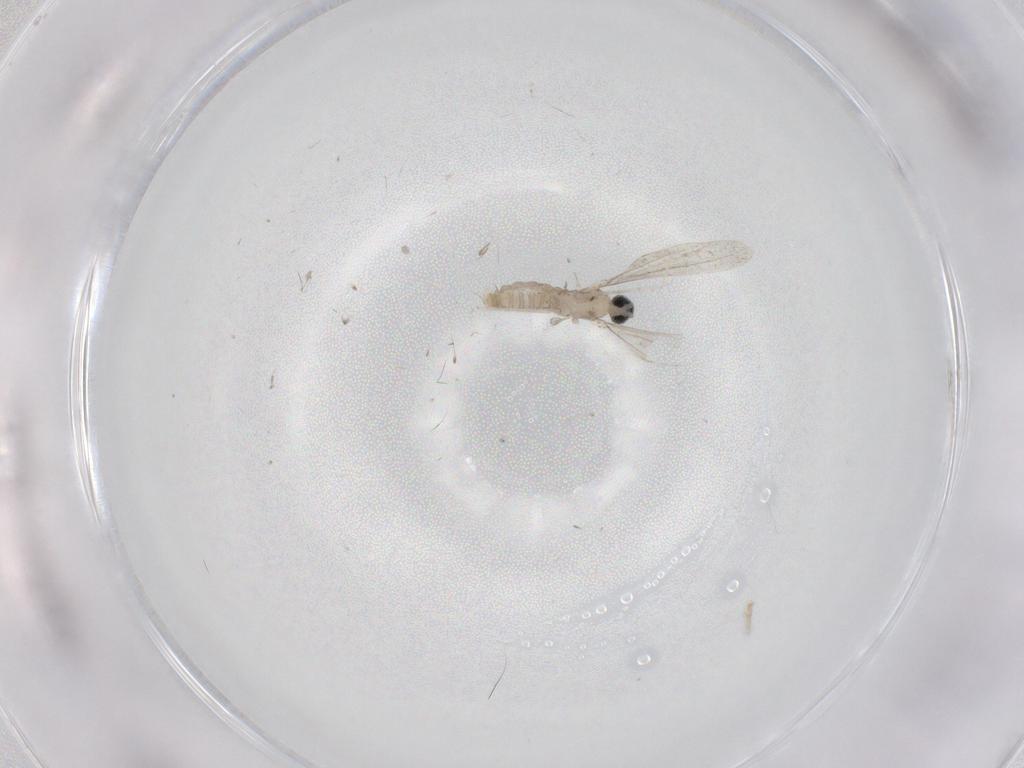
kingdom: Animalia
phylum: Arthropoda
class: Insecta
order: Diptera
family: Cecidomyiidae
